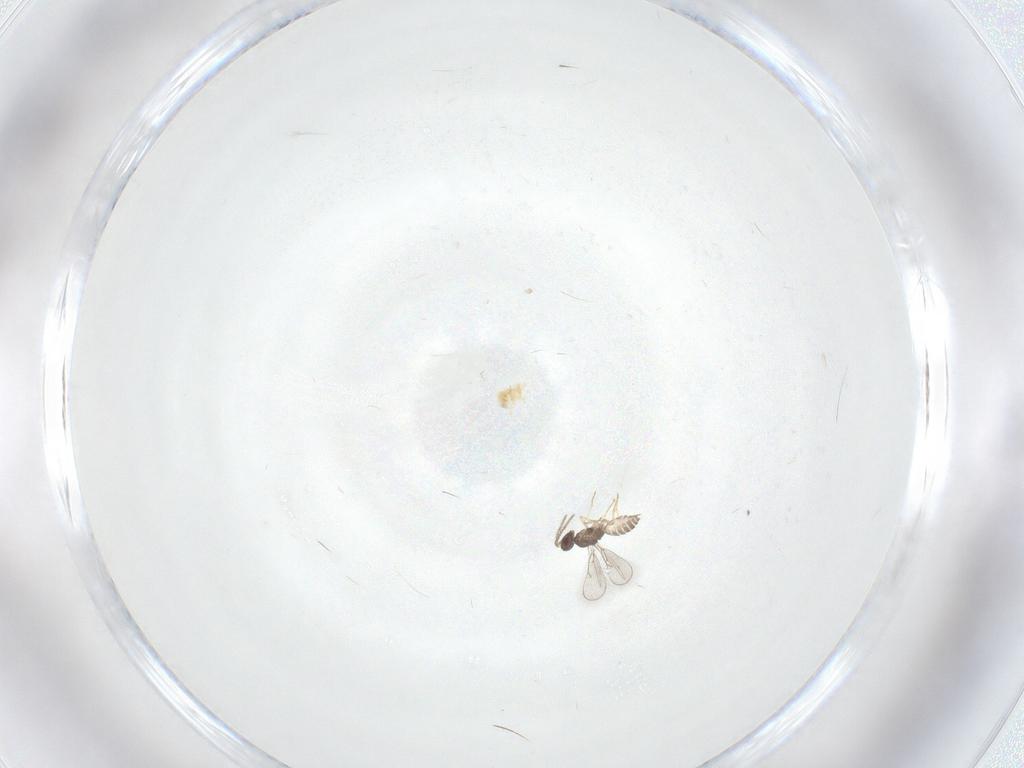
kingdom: Animalia
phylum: Arthropoda
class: Insecta
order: Hymenoptera
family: Eulophidae
